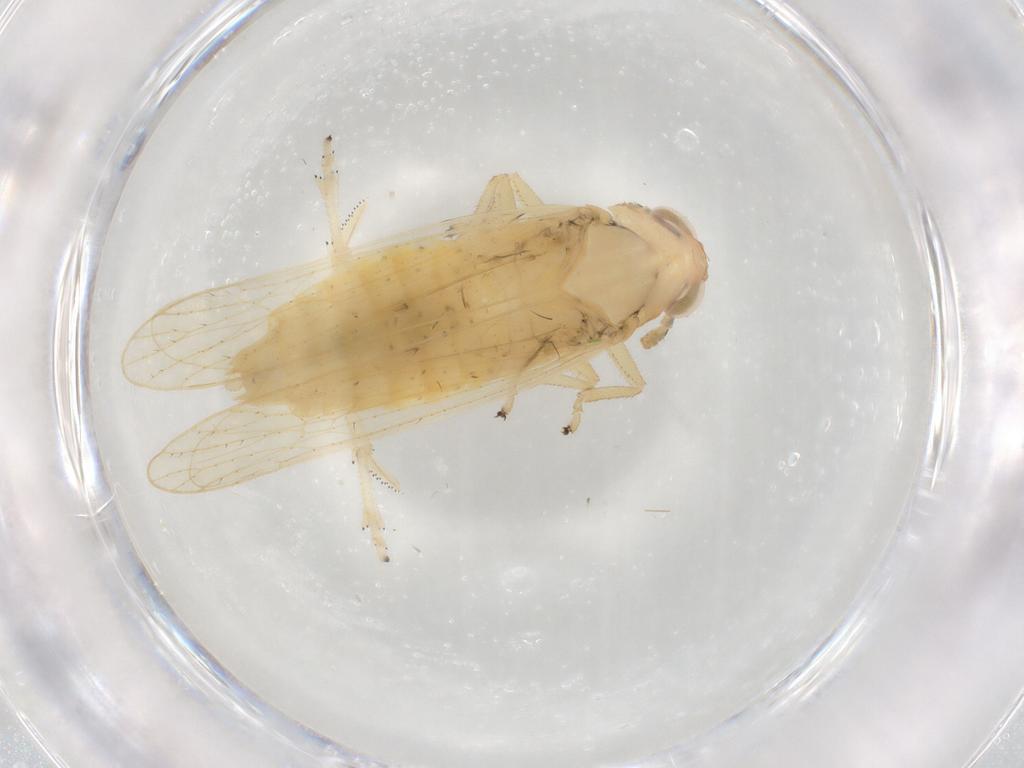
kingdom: Animalia
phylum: Arthropoda
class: Insecta
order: Hemiptera
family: Delphacidae
